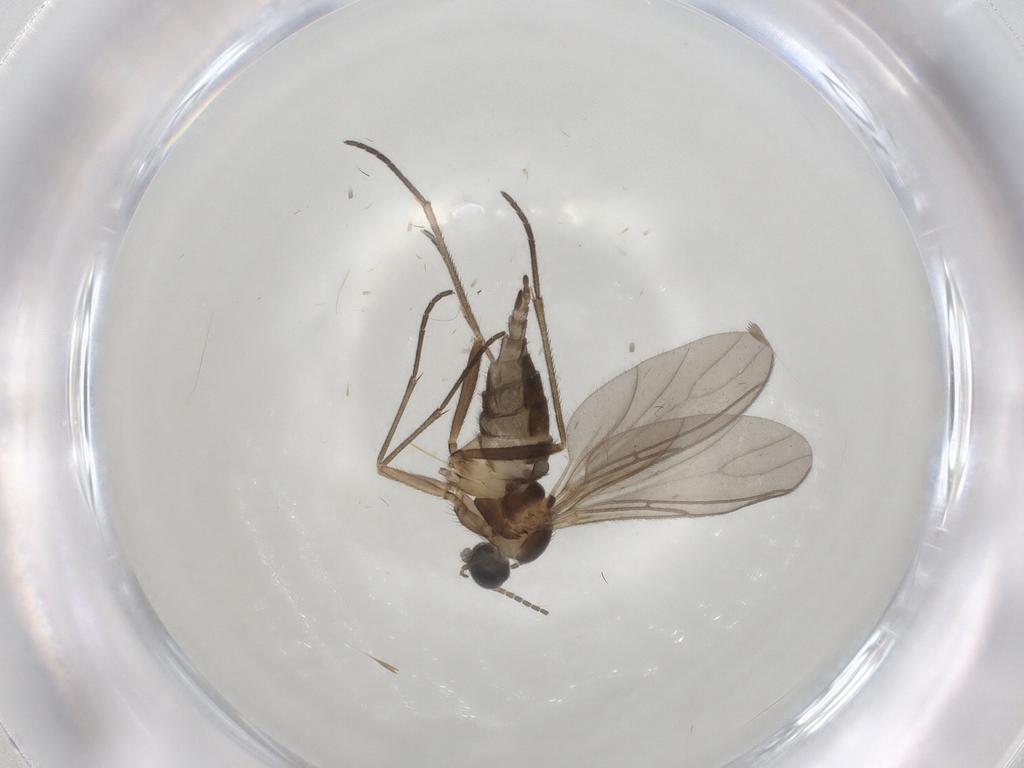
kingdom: Animalia
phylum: Arthropoda
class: Insecta
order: Diptera
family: Sciaridae
